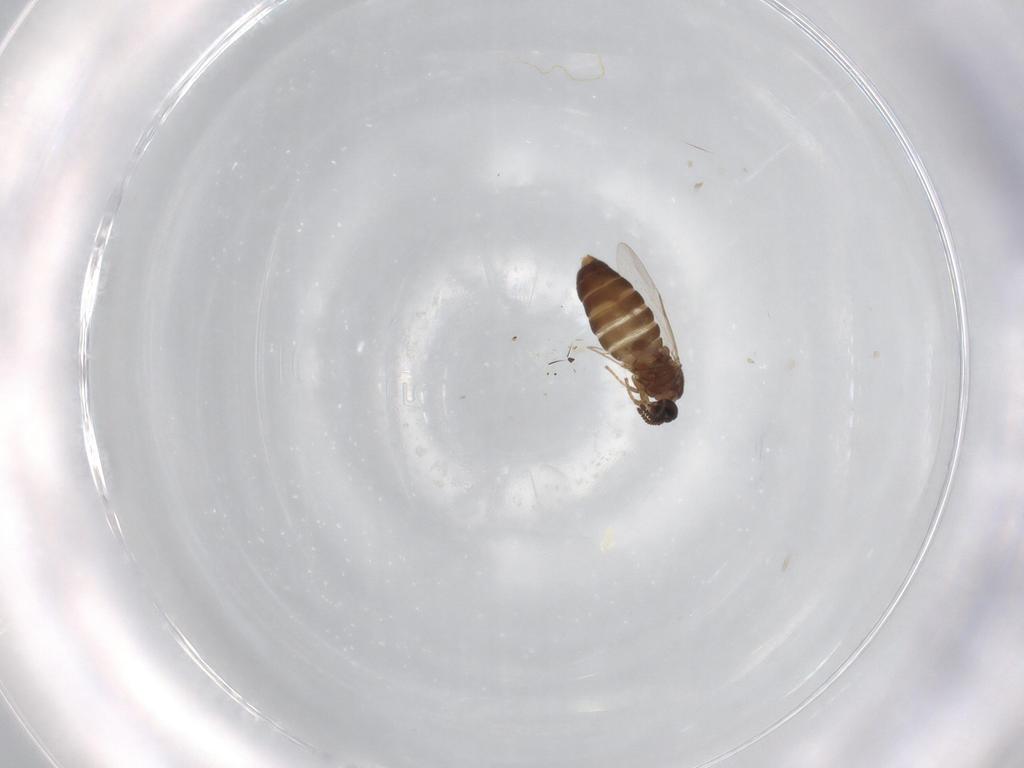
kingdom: Animalia
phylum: Arthropoda
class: Insecta
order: Diptera
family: Scatopsidae
